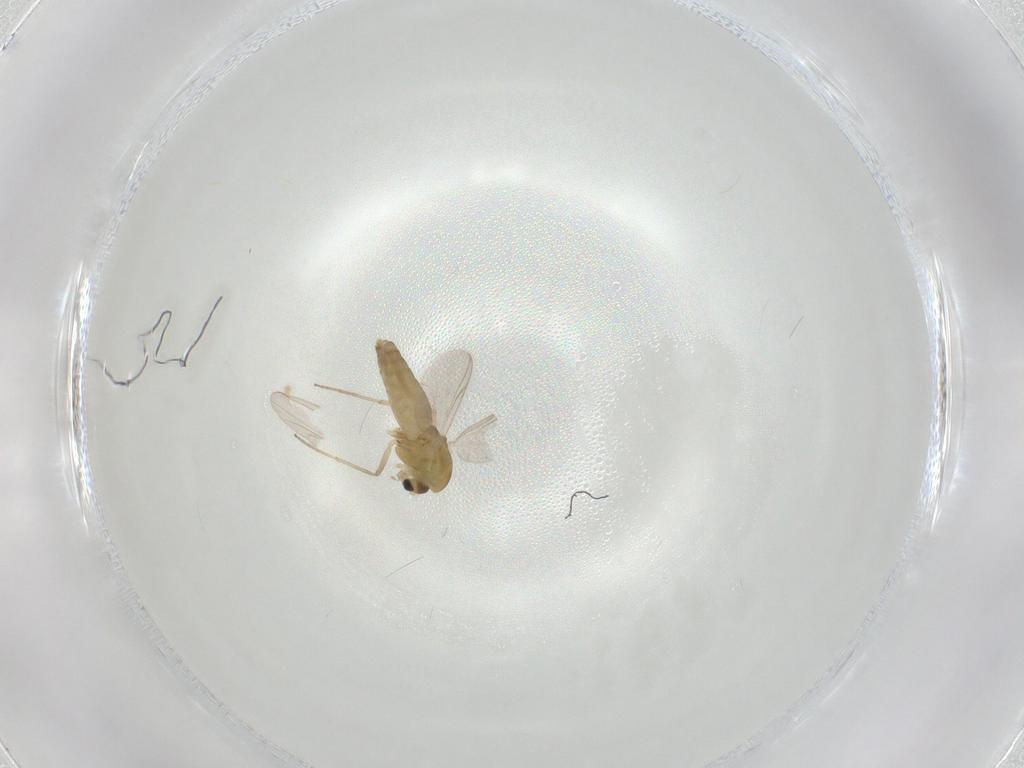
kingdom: Animalia
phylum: Arthropoda
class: Insecta
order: Diptera
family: Chironomidae
